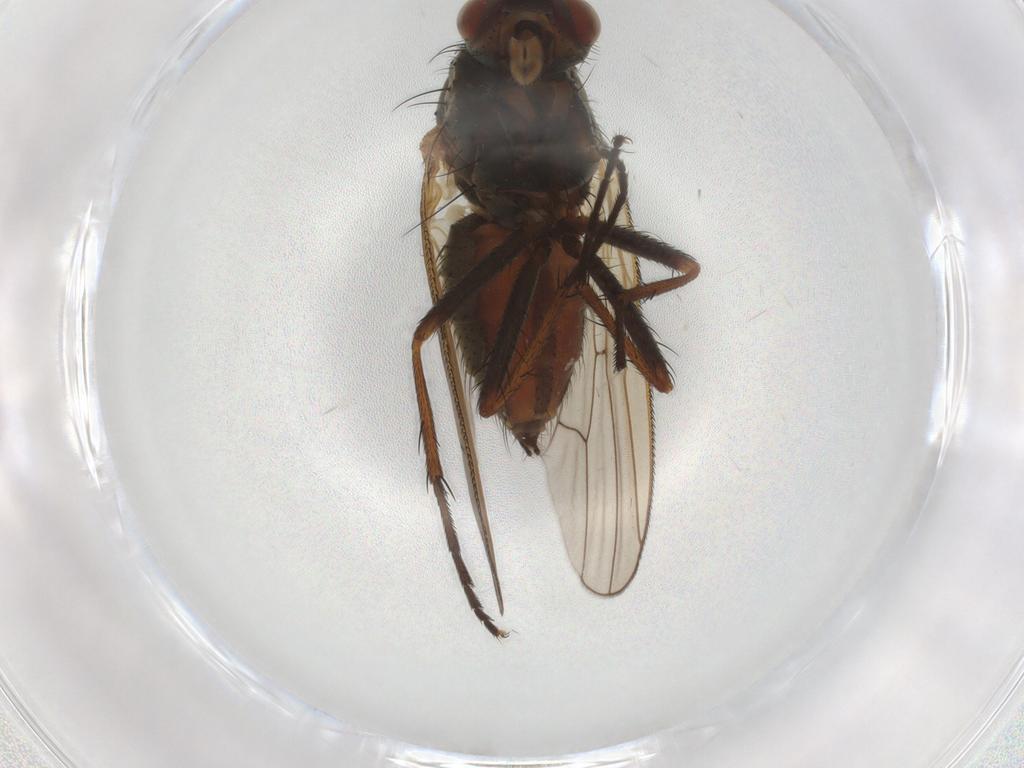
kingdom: Animalia
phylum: Arthropoda
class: Insecta
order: Diptera
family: Anthomyiidae
